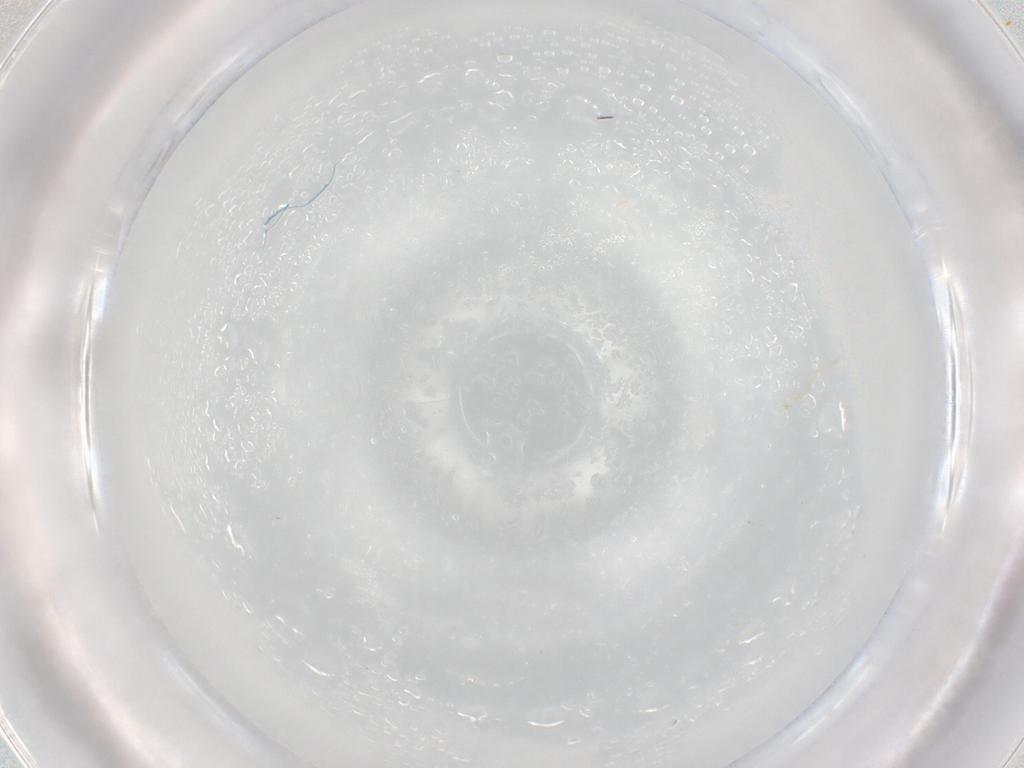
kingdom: Animalia
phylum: Arthropoda
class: Insecta
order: Diptera
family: Sciaridae
